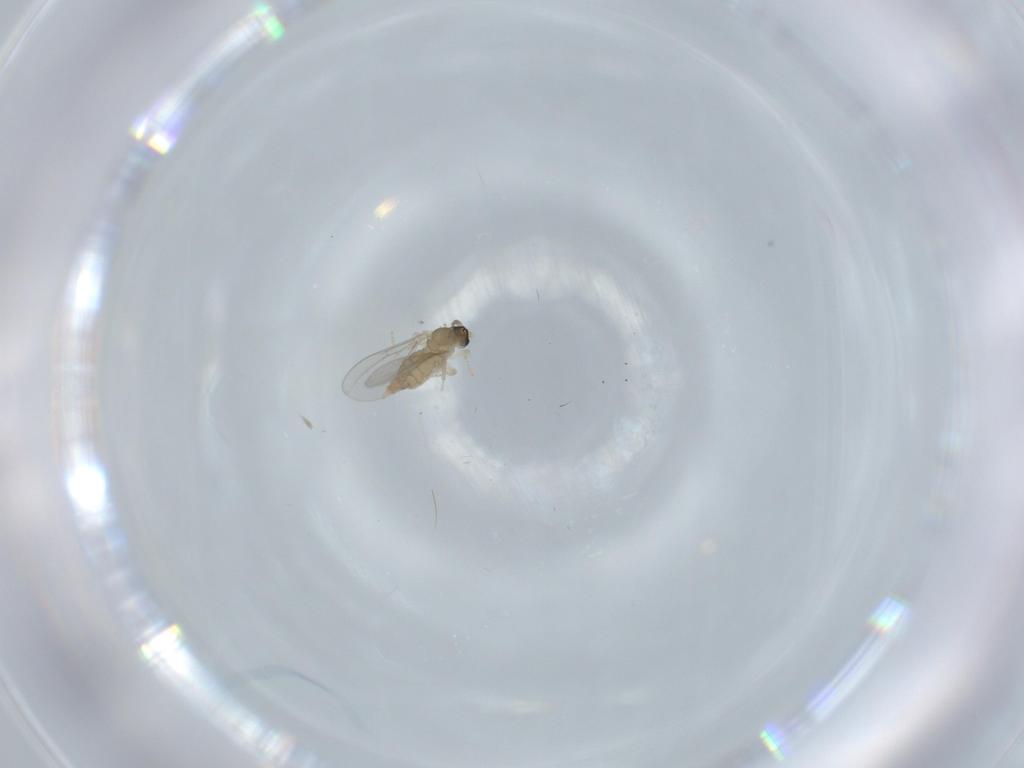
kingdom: Animalia
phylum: Arthropoda
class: Insecta
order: Diptera
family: Cecidomyiidae
